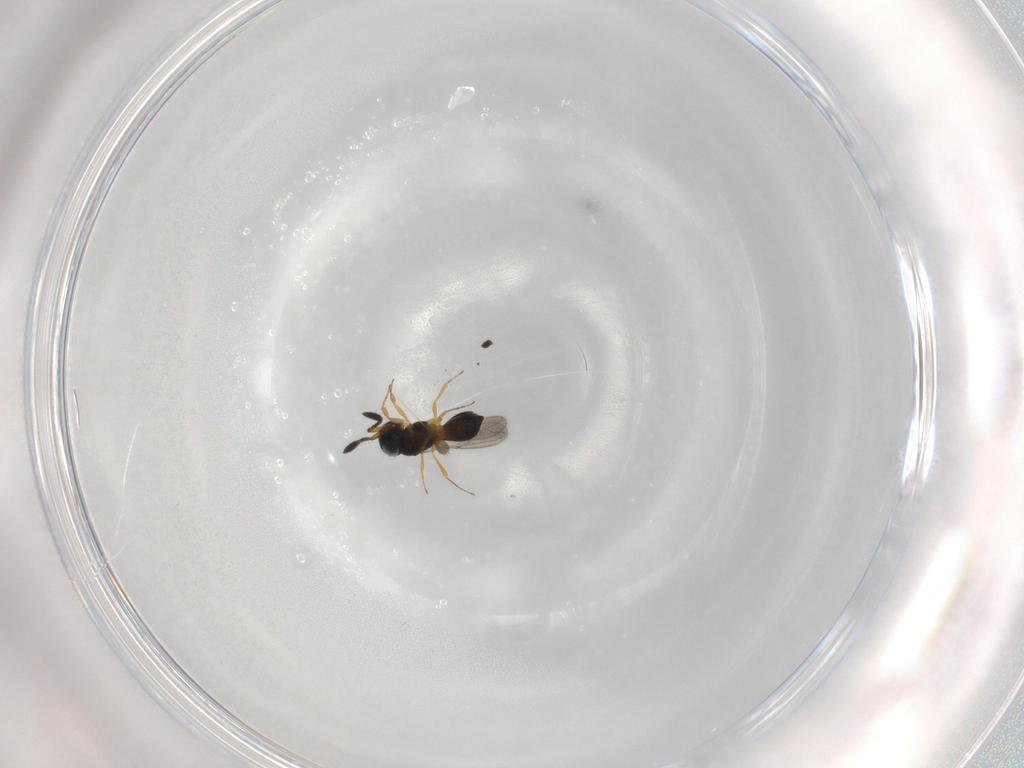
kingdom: Animalia
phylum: Arthropoda
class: Insecta
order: Hymenoptera
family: Scelionidae
